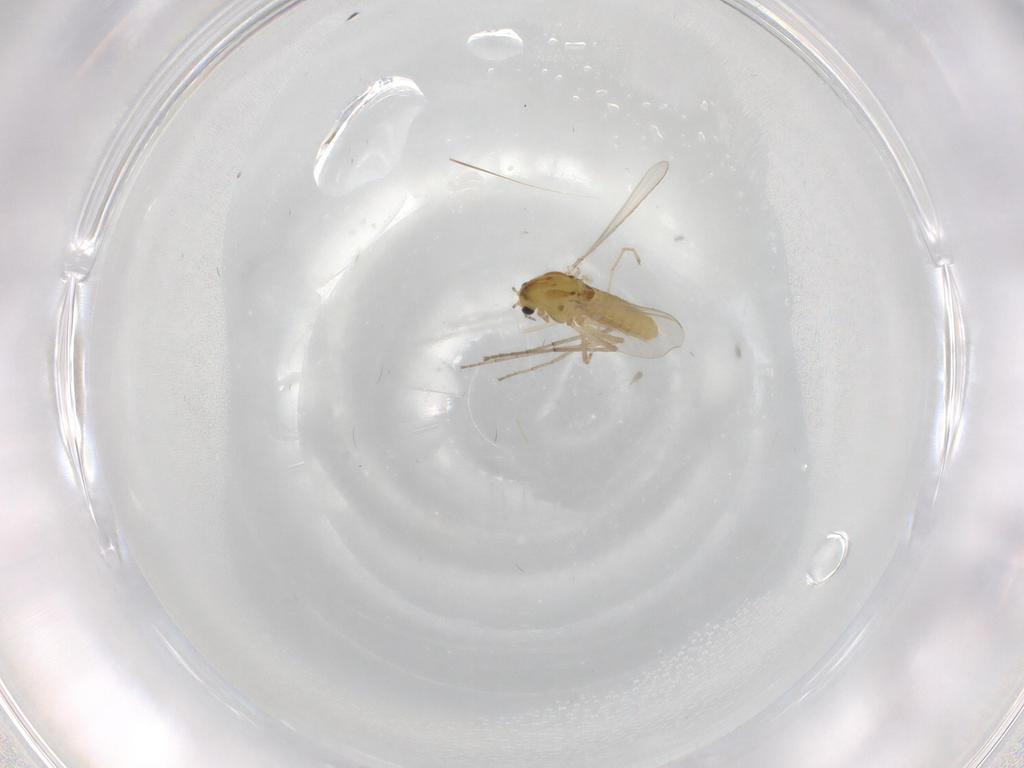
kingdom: Animalia
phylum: Arthropoda
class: Insecta
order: Diptera
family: Chironomidae
